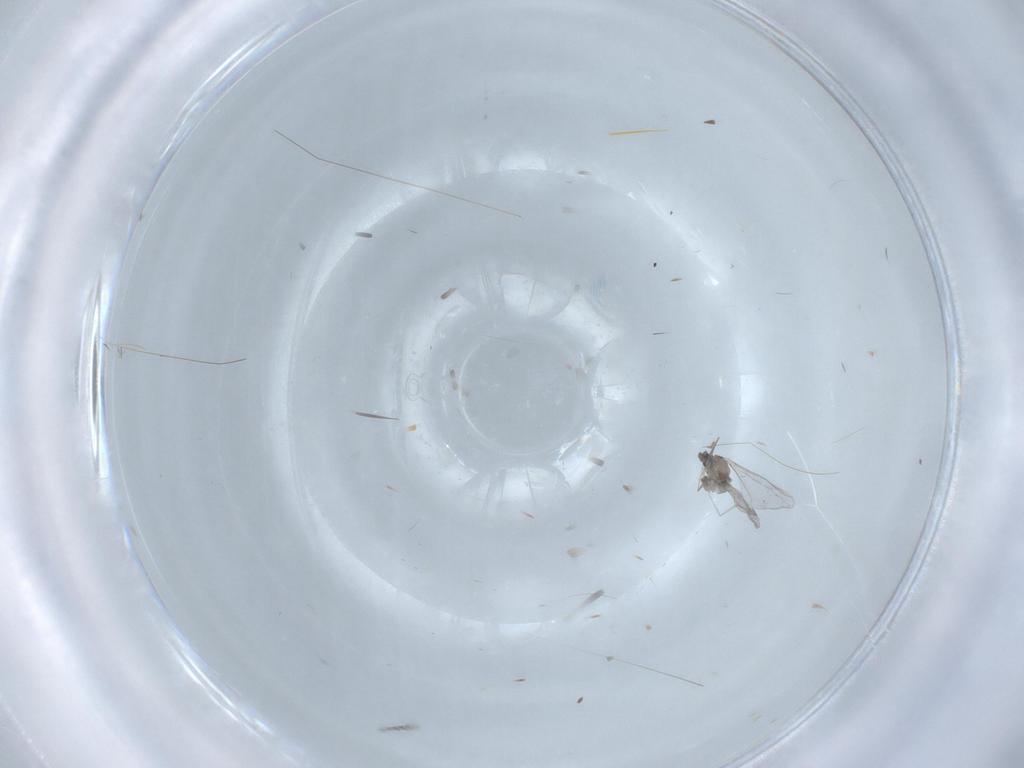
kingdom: Animalia
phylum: Arthropoda
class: Insecta
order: Diptera
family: Cecidomyiidae
